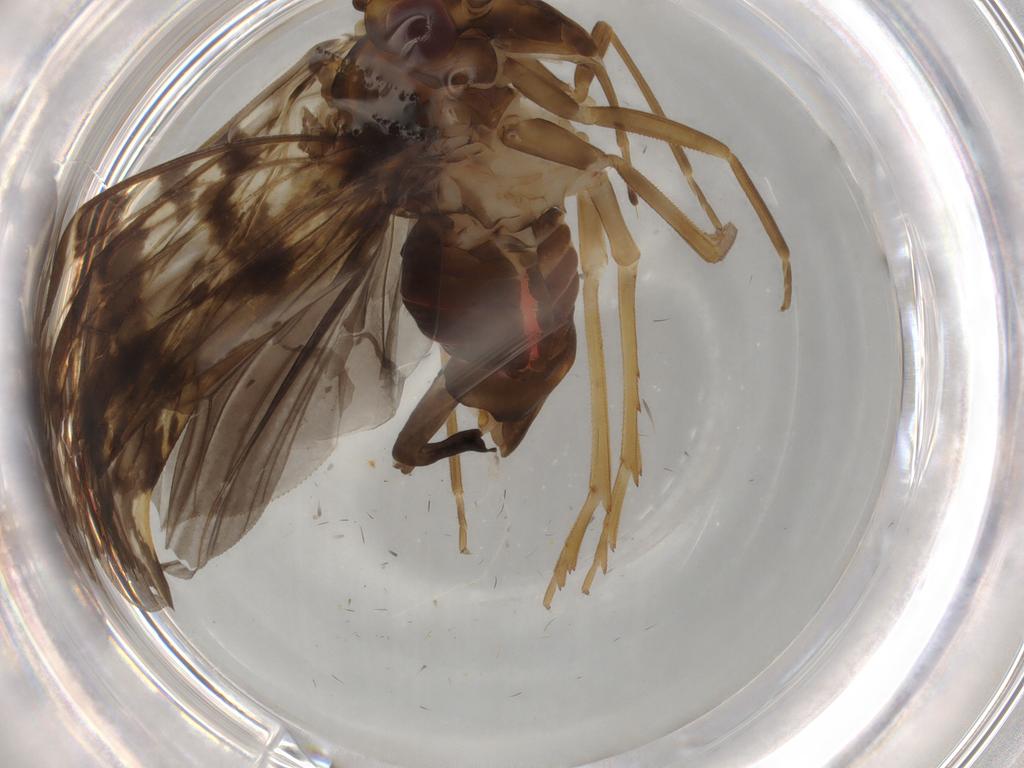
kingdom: Animalia
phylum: Arthropoda
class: Insecta
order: Hemiptera
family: Cixiidae
